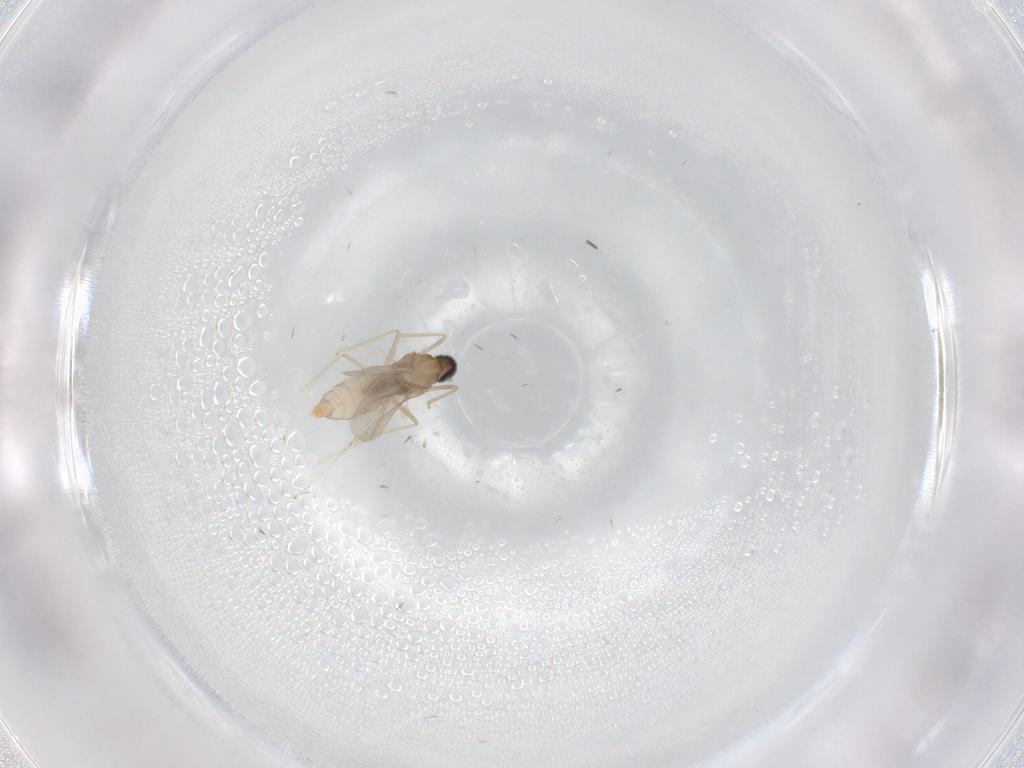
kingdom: Animalia
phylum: Arthropoda
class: Insecta
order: Diptera
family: Cecidomyiidae
